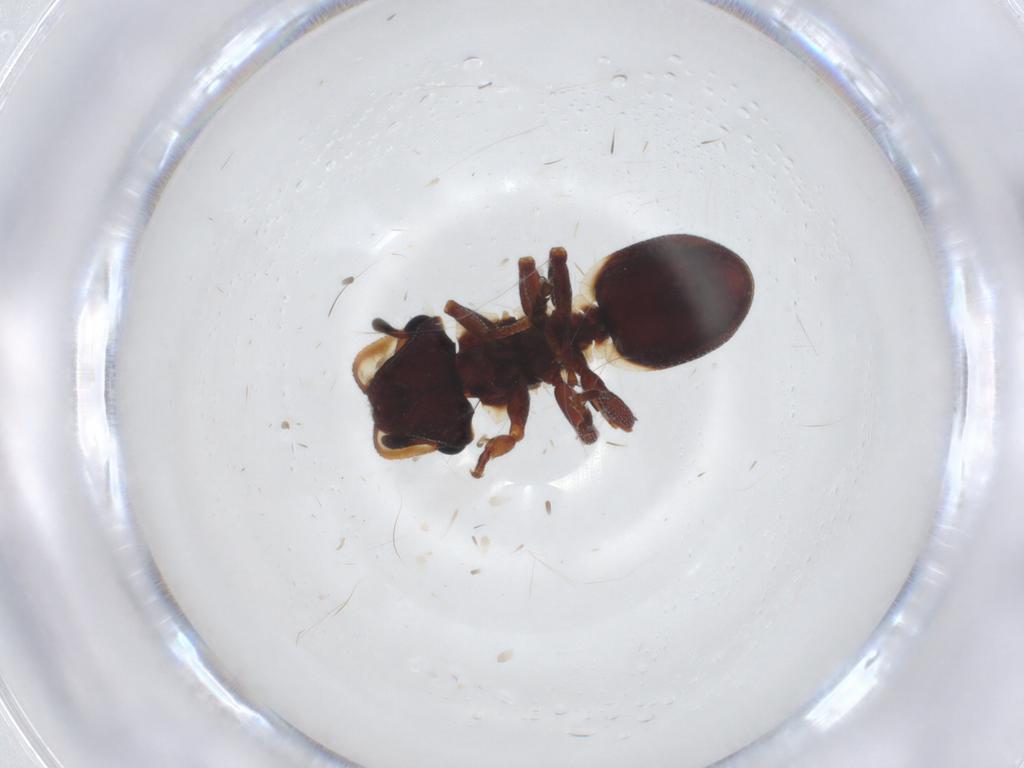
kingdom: Animalia
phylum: Arthropoda
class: Insecta
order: Hymenoptera
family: Formicidae
